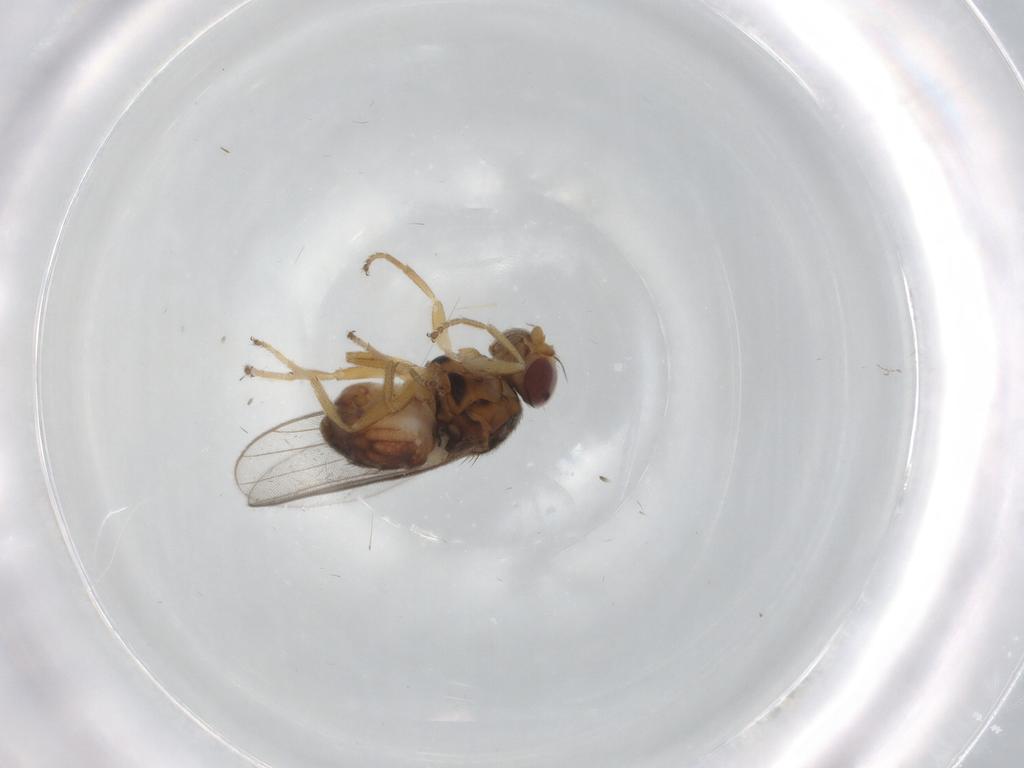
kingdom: Animalia
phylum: Arthropoda
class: Insecta
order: Diptera
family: Chloropidae
